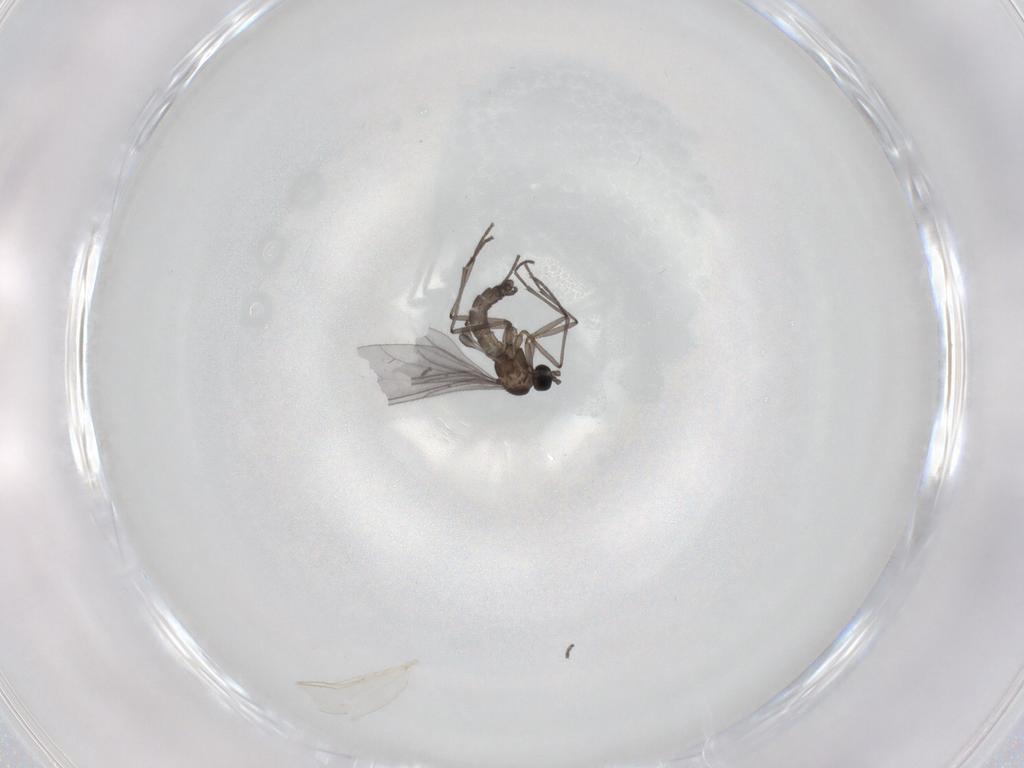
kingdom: Animalia
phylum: Arthropoda
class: Insecta
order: Diptera
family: Sciaridae
